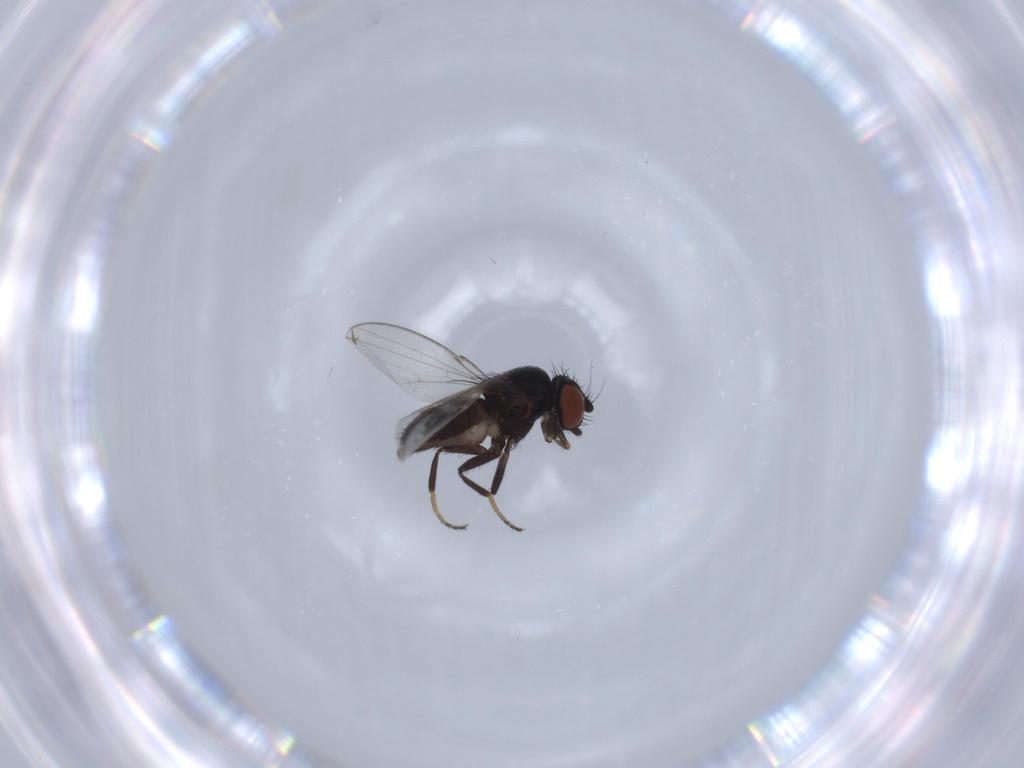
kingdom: Animalia
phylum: Arthropoda
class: Insecta
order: Diptera
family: Milichiidae
